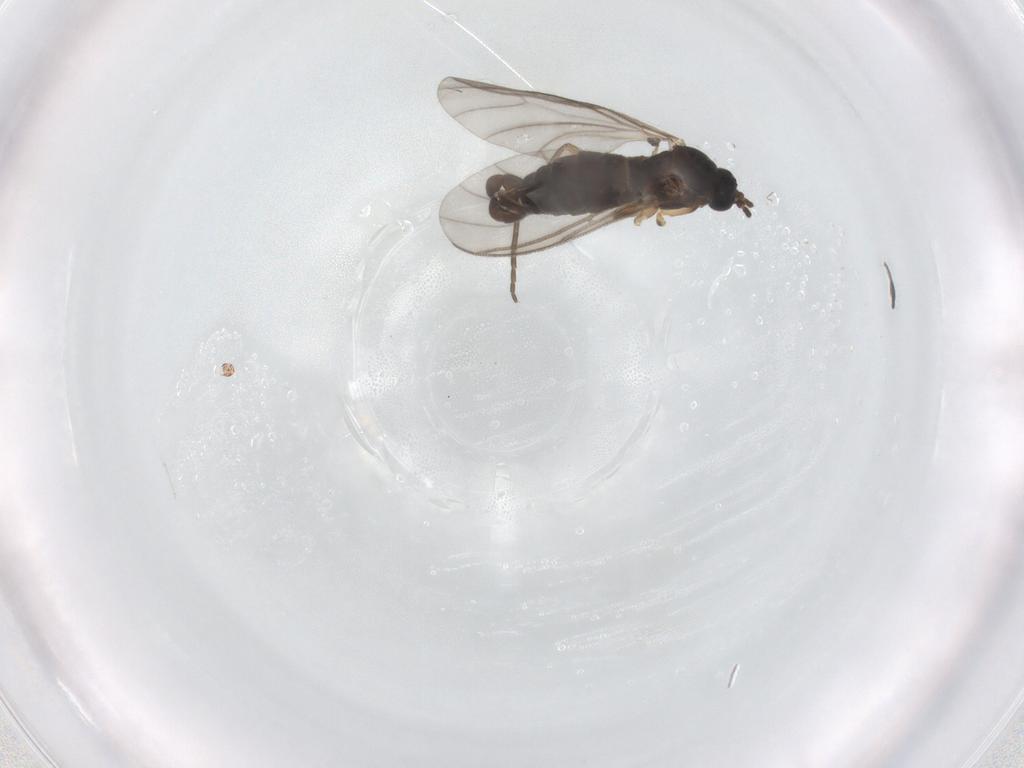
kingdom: Animalia
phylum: Arthropoda
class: Insecta
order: Diptera
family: Sciaridae
